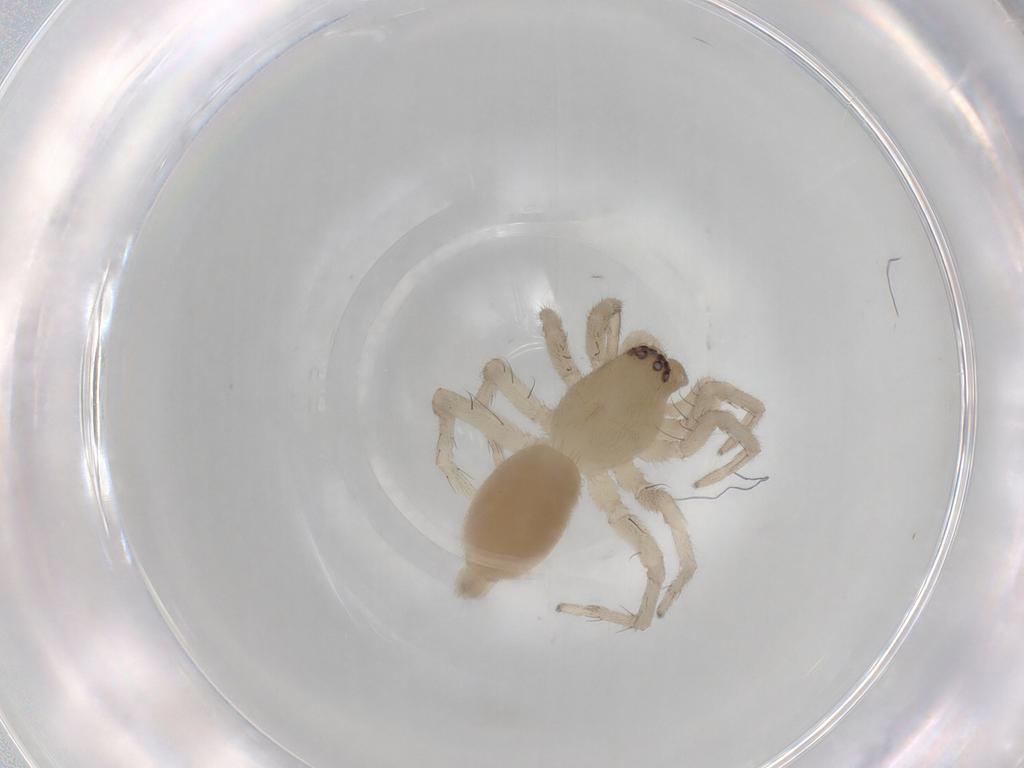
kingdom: Animalia
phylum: Arthropoda
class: Arachnida
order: Araneae
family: Clubionidae
